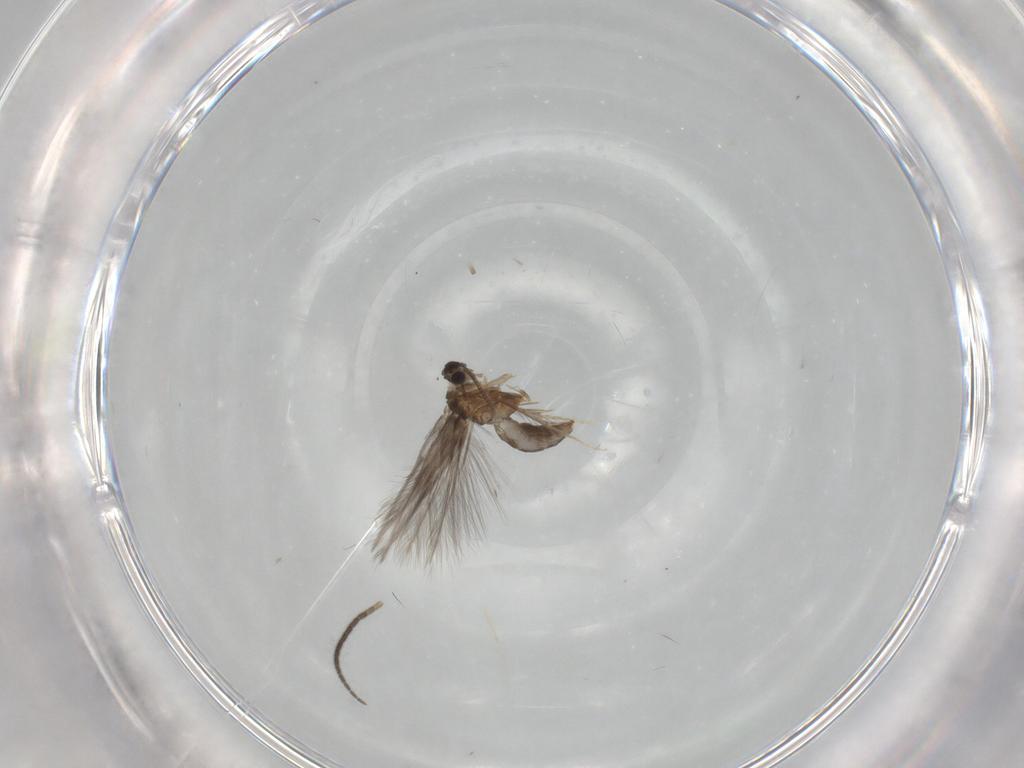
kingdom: Animalia
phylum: Arthropoda
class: Insecta
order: Trichoptera
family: Hydroptilidae
